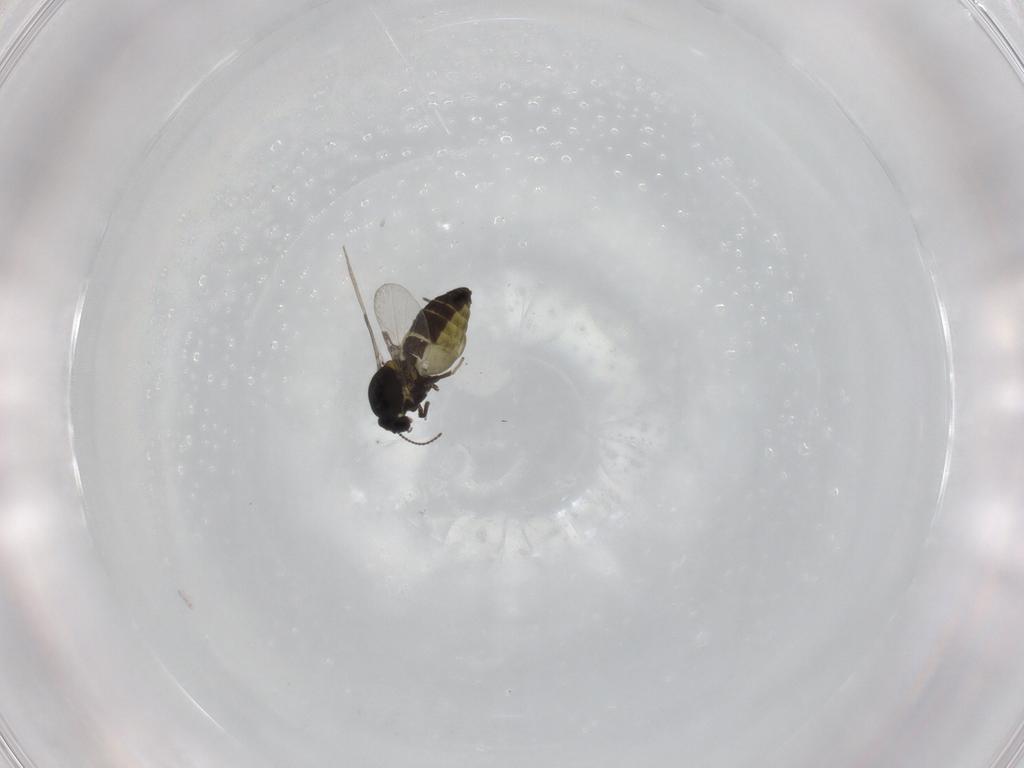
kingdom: Animalia
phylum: Arthropoda
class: Insecta
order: Diptera
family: Ceratopogonidae
